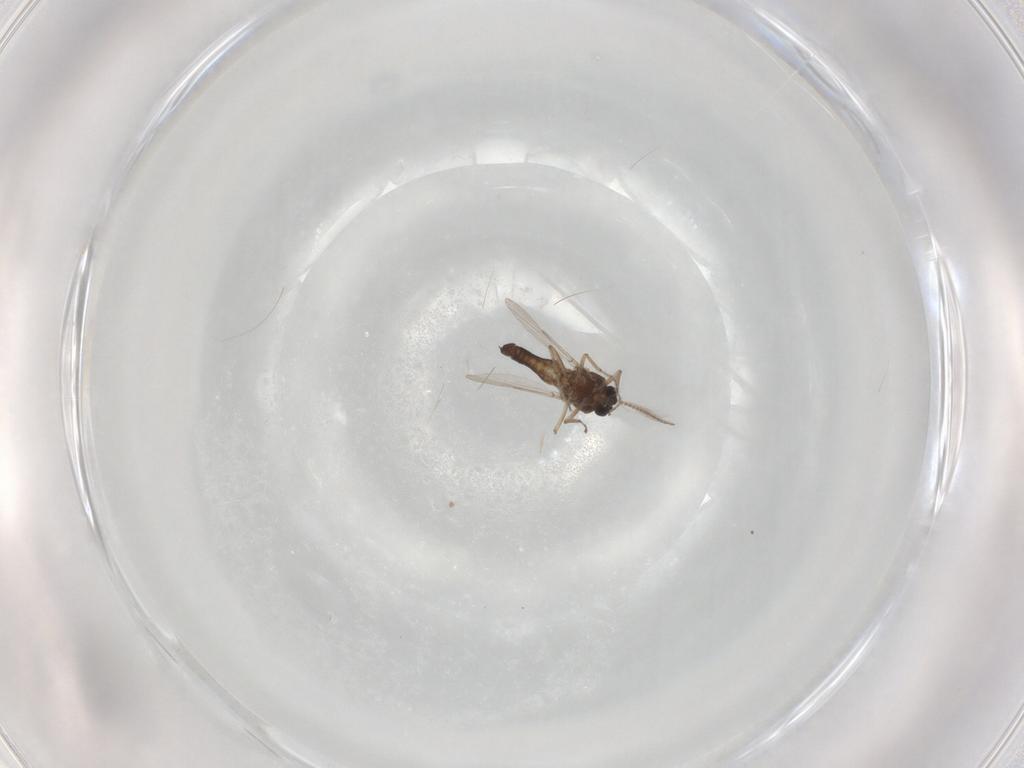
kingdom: Animalia
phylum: Arthropoda
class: Insecta
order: Diptera
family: Ceratopogonidae
